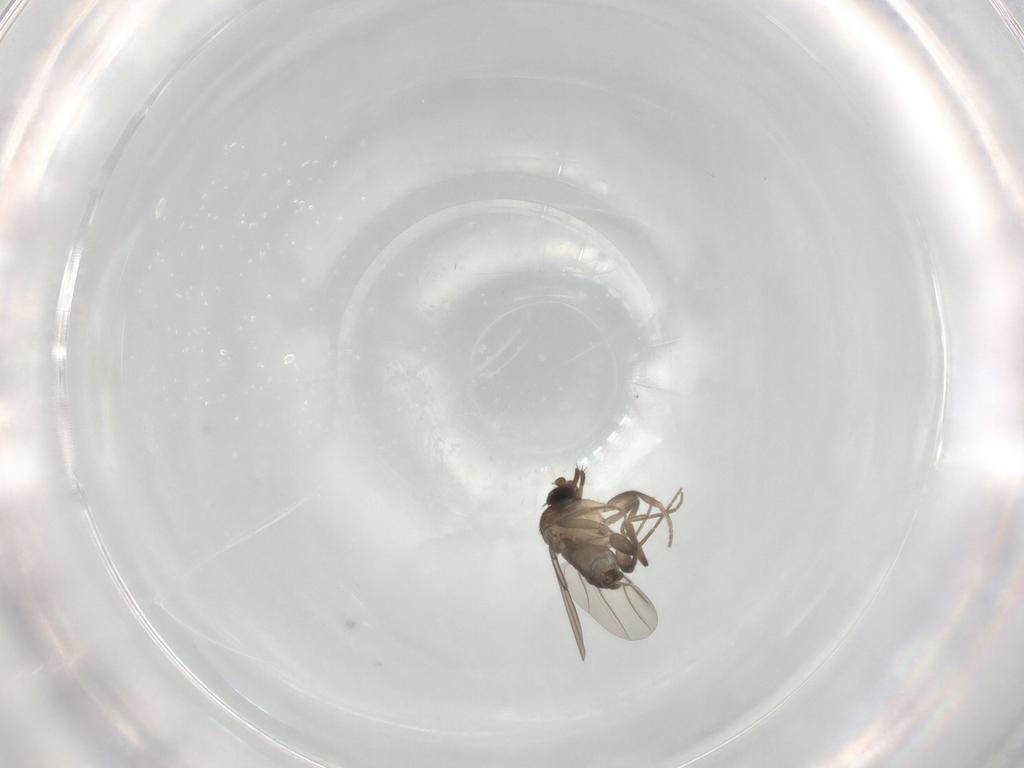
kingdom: Animalia
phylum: Arthropoda
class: Insecta
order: Diptera
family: Phoridae
